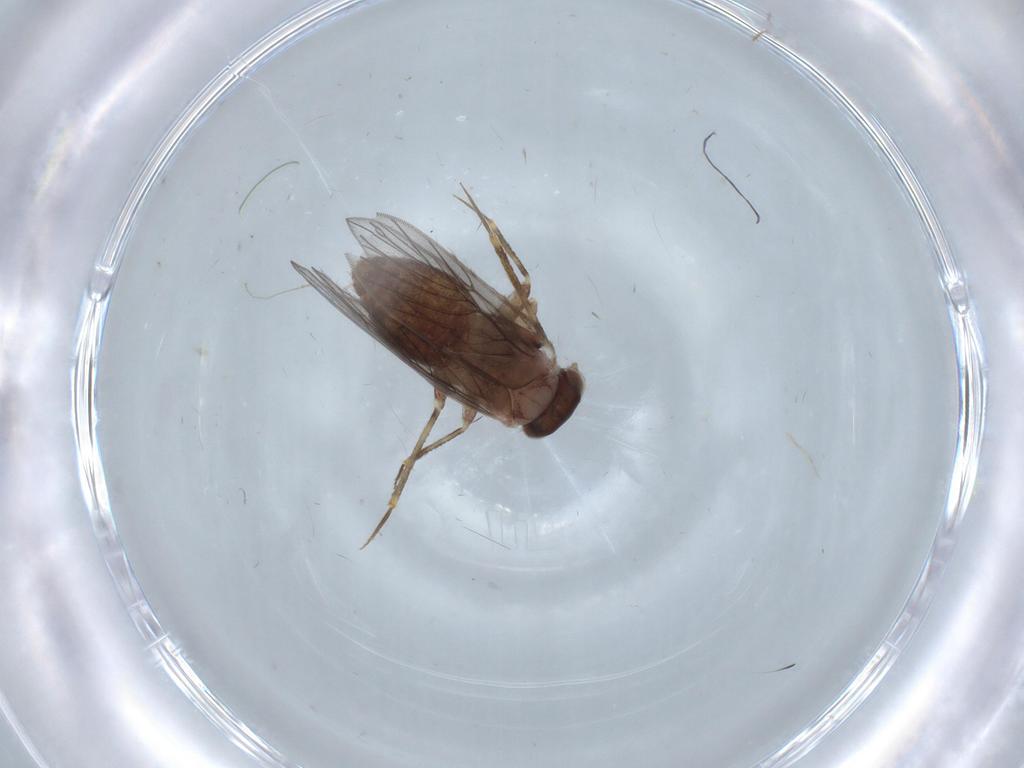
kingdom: Animalia
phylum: Arthropoda
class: Insecta
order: Psocodea
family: Lepidopsocidae
